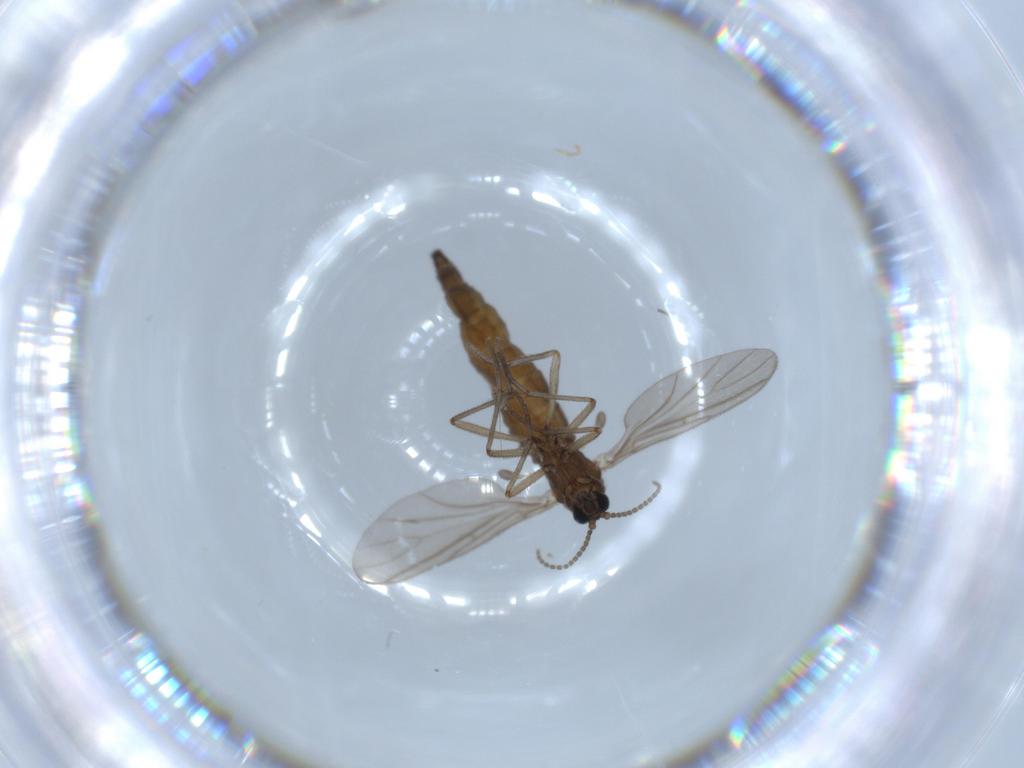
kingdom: Animalia
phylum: Arthropoda
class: Insecta
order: Diptera
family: Sciaridae
